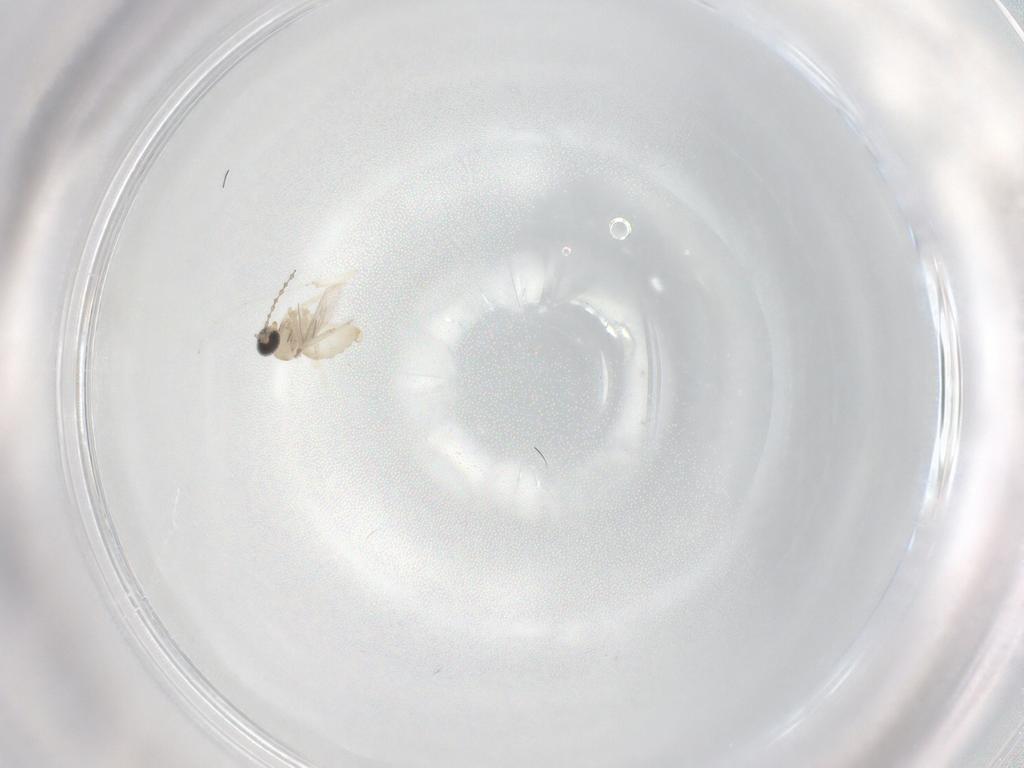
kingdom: Animalia
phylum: Arthropoda
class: Insecta
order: Diptera
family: Cecidomyiidae
